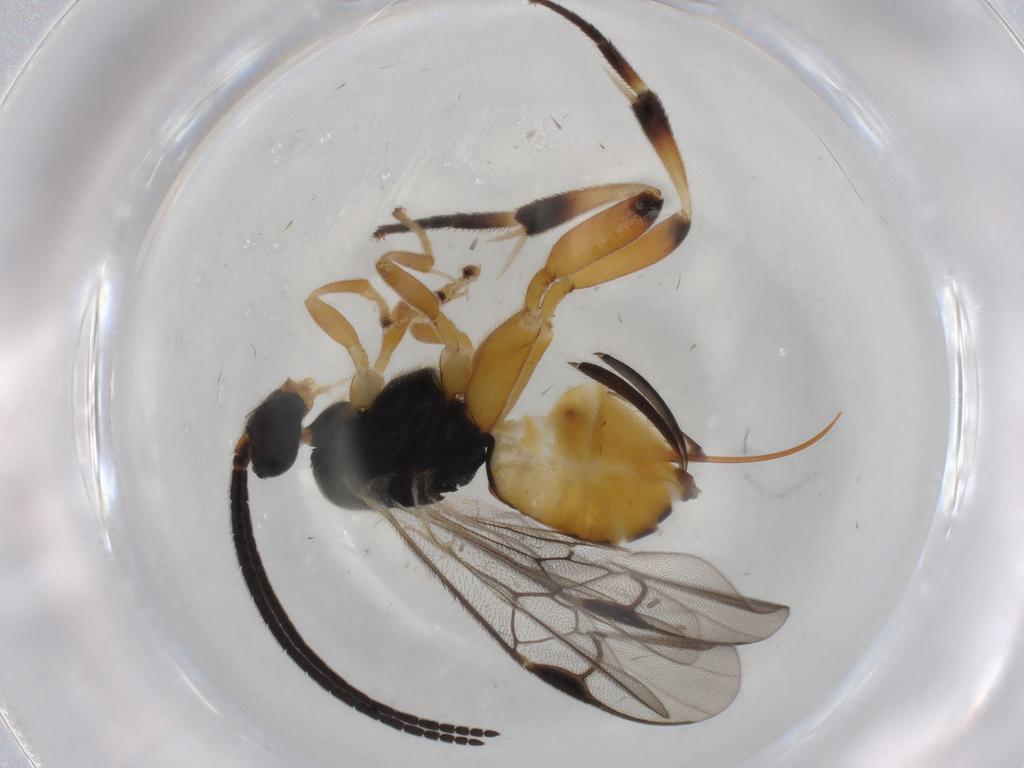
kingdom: Animalia
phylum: Arthropoda
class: Insecta
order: Hymenoptera
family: Braconidae
